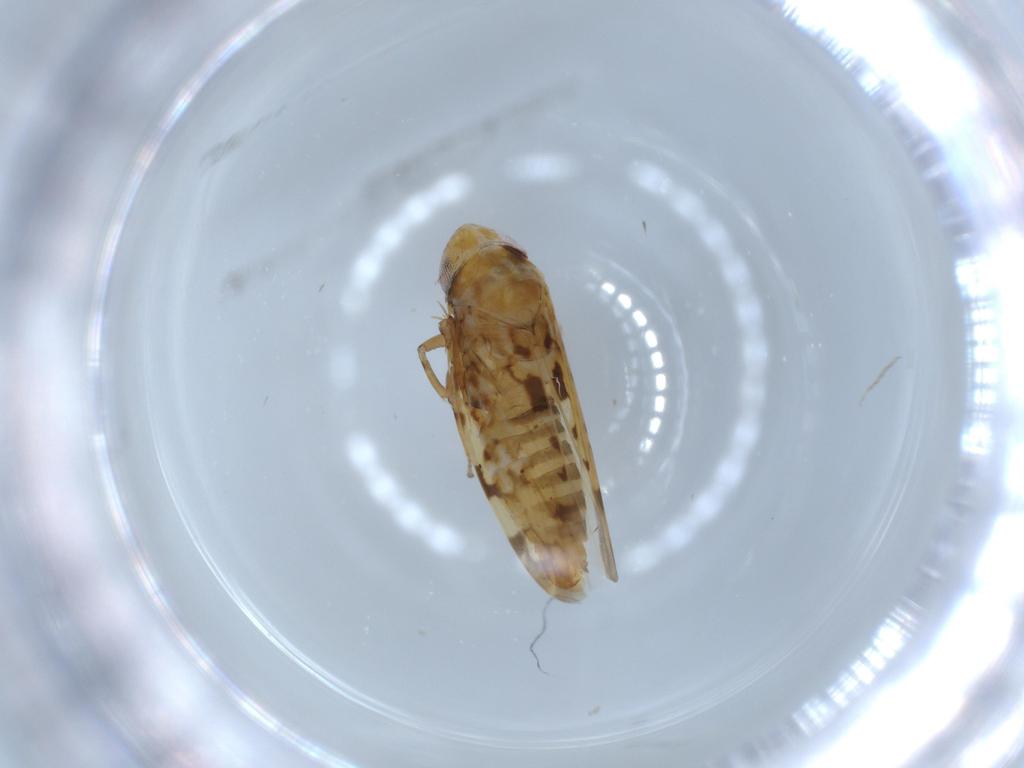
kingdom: Animalia
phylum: Arthropoda
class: Insecta
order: Hemiptera
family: Cicadellidae
